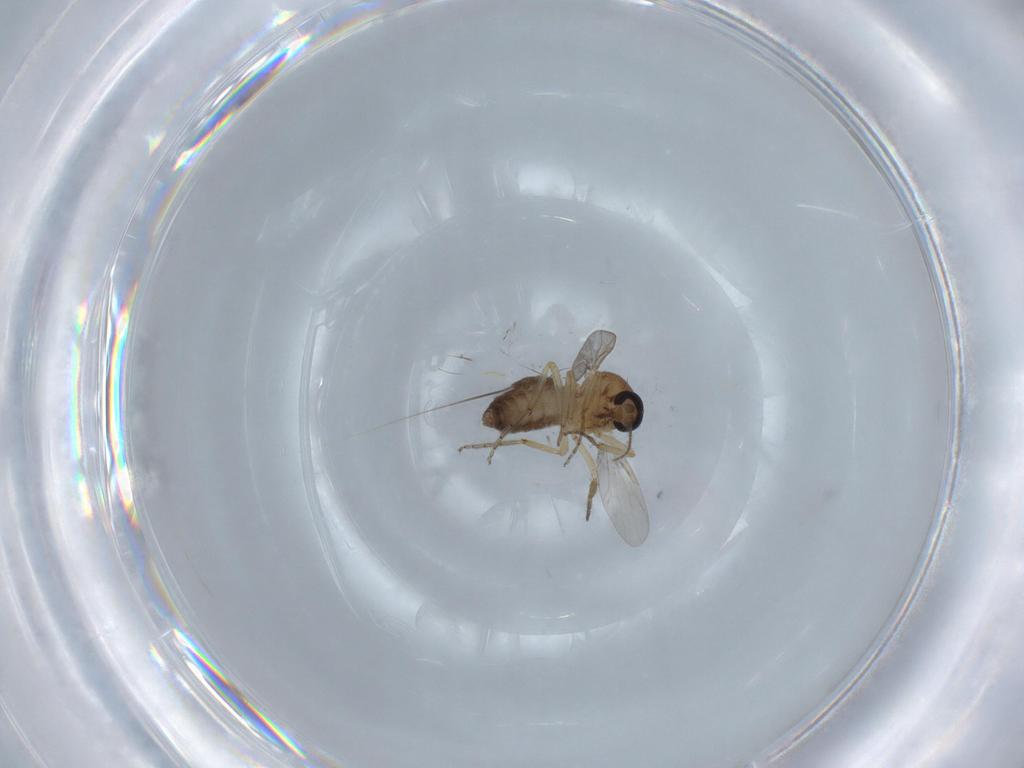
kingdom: Animalia
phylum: Arthropoda
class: Insecta
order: Diptera
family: Ceratopogonidae
